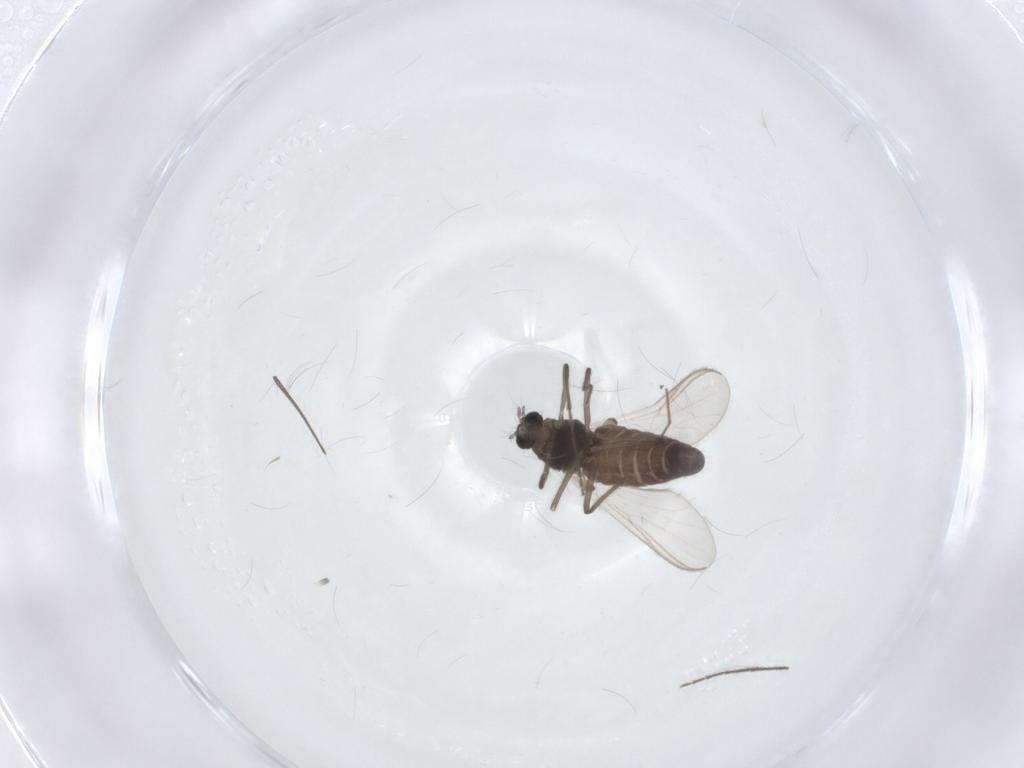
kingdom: Animalia
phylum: Arthropoda
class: Insecta
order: Diptera
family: Chironomidae
